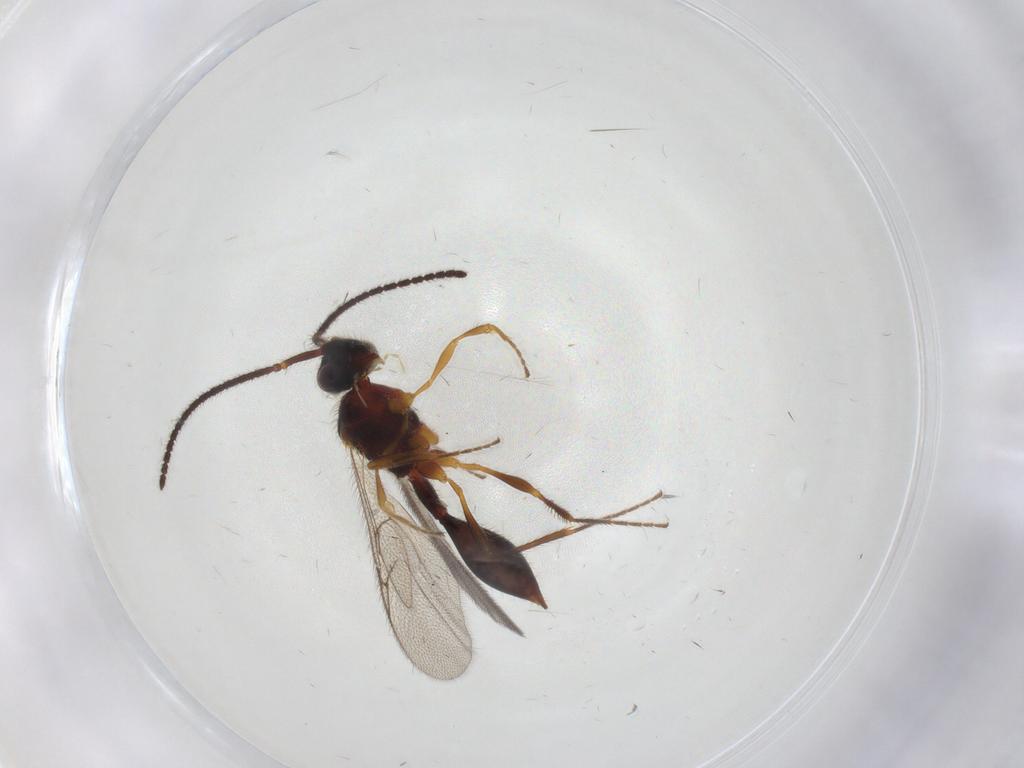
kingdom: Animalia
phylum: Arthropoda
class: Insecta
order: Hymenoptera
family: Diapriidae
